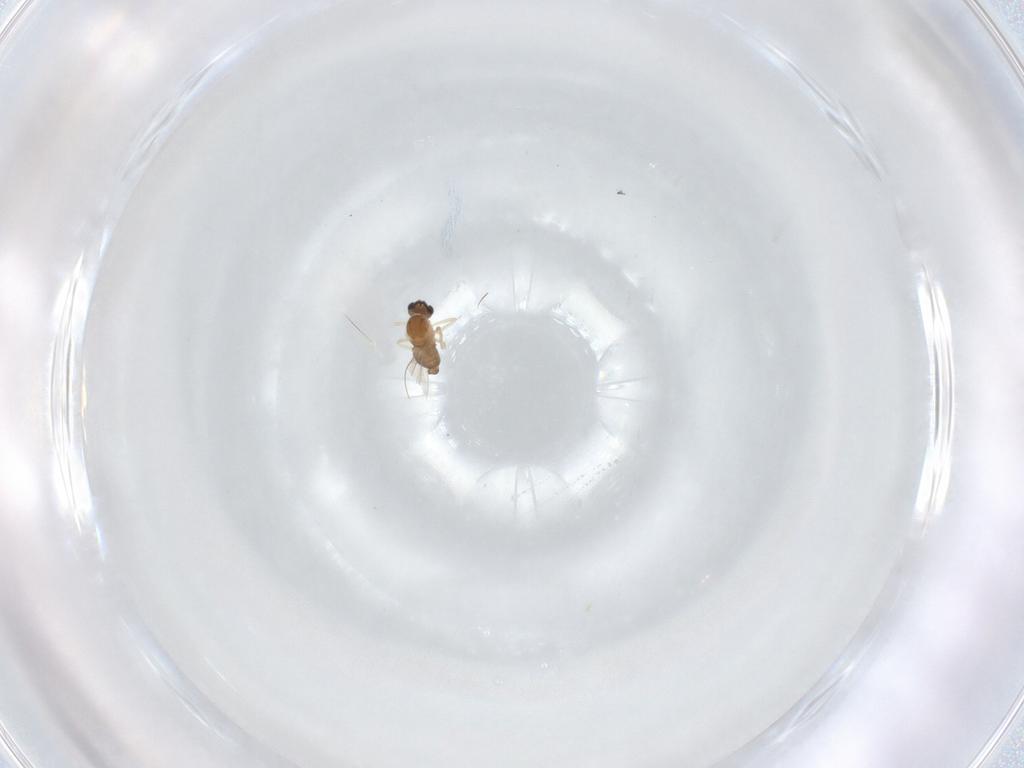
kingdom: Animalia
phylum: Arthropoda
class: Insecta
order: Diptera
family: Cecidomyiidae
